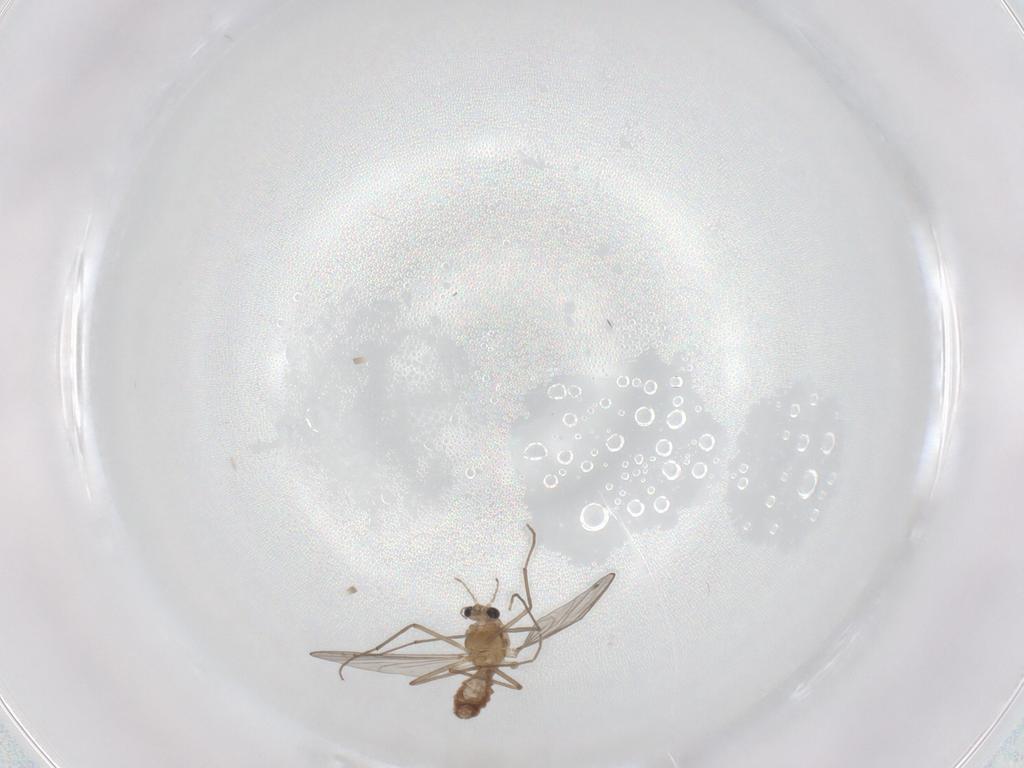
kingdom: Animalia
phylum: Arthropoda
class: Insecta
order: Diptera
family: Chironomidae
